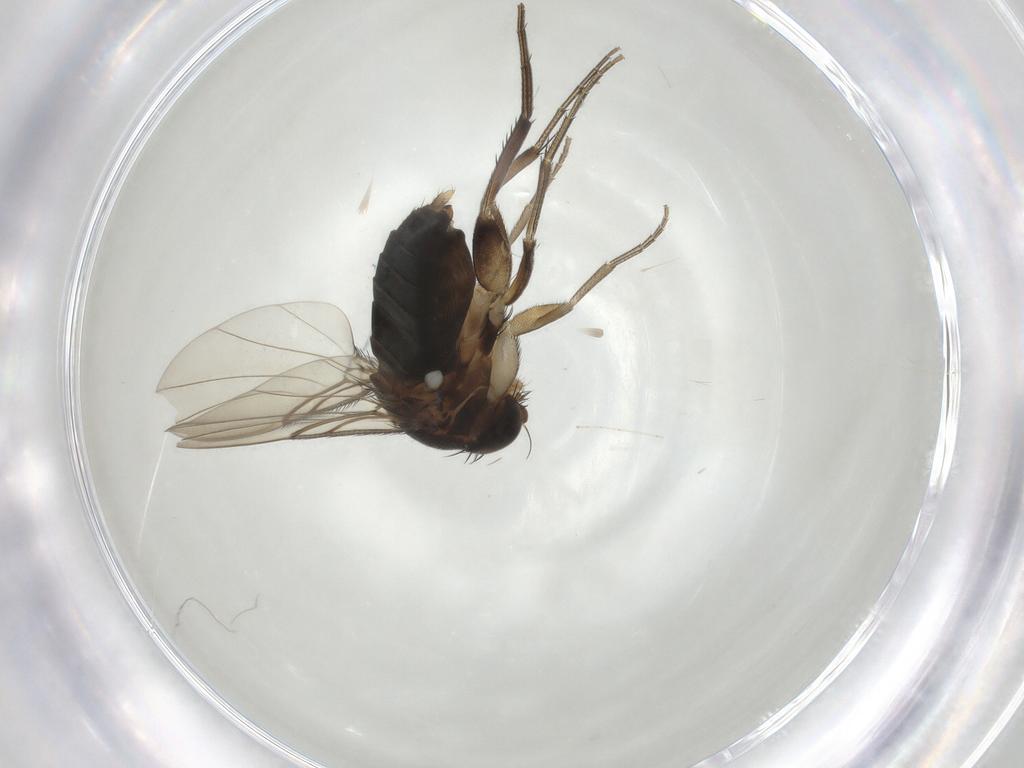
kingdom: Animalia
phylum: Arthropoda
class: Insecta
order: Diptera
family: Phoridae
